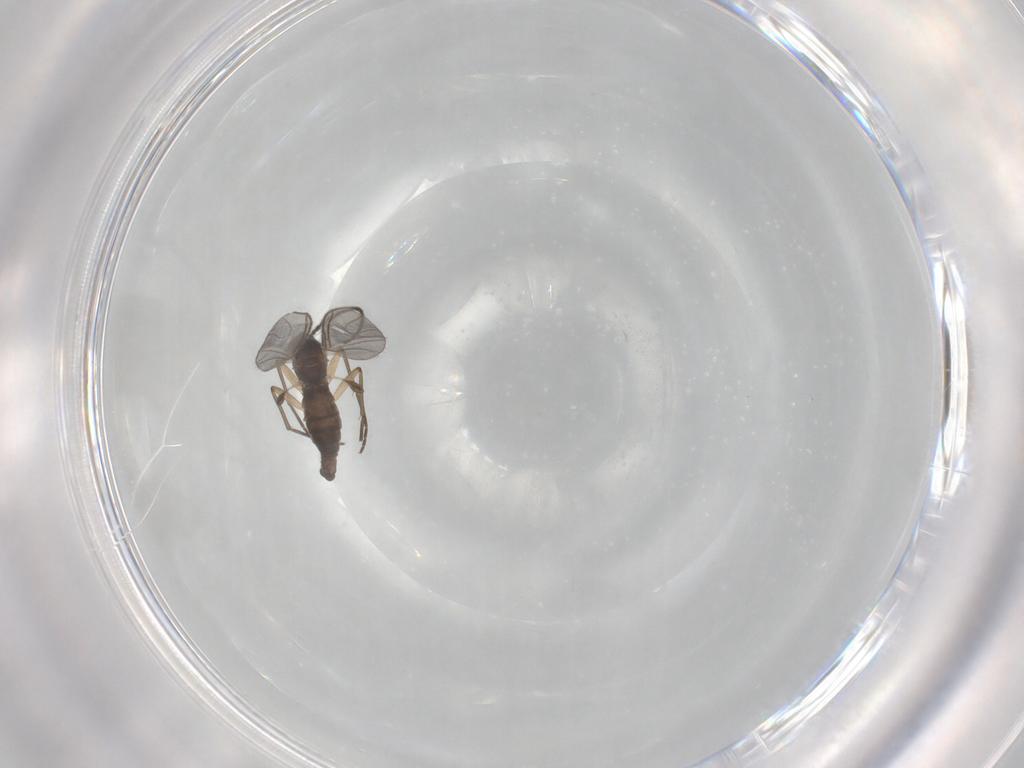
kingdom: Animalia
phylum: Arthropoda
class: Insecta
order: Diptera
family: Sciaridae
